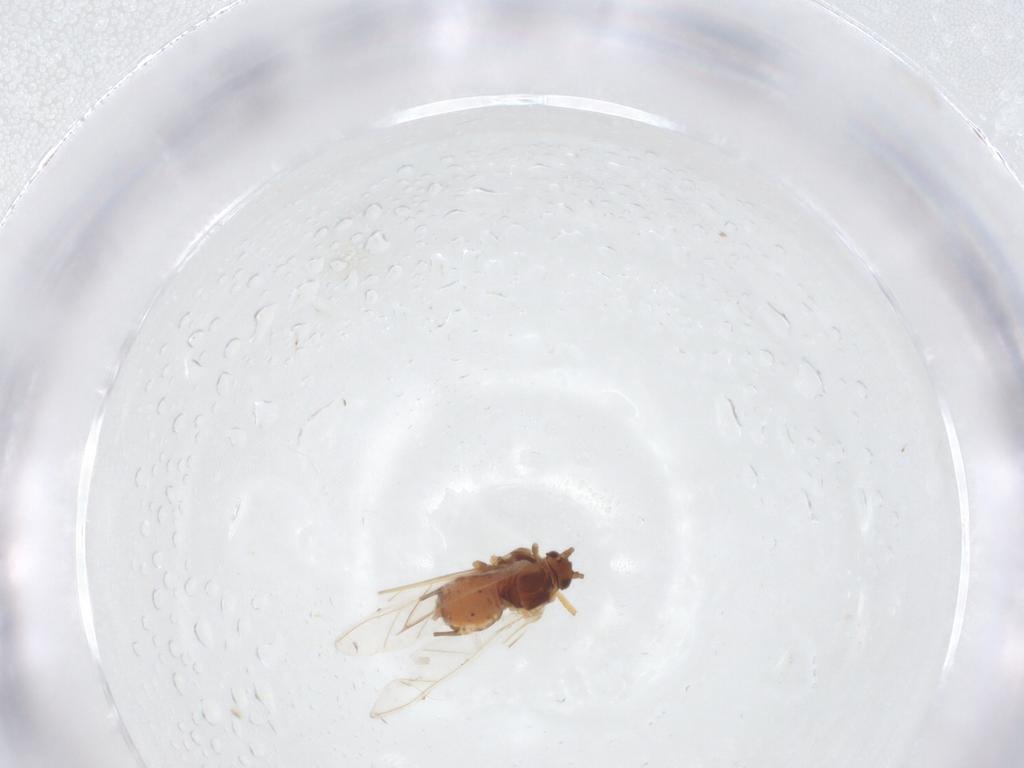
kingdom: Animalia
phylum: Arthropoda
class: Insecta
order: Hemiptera
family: Aphididae
